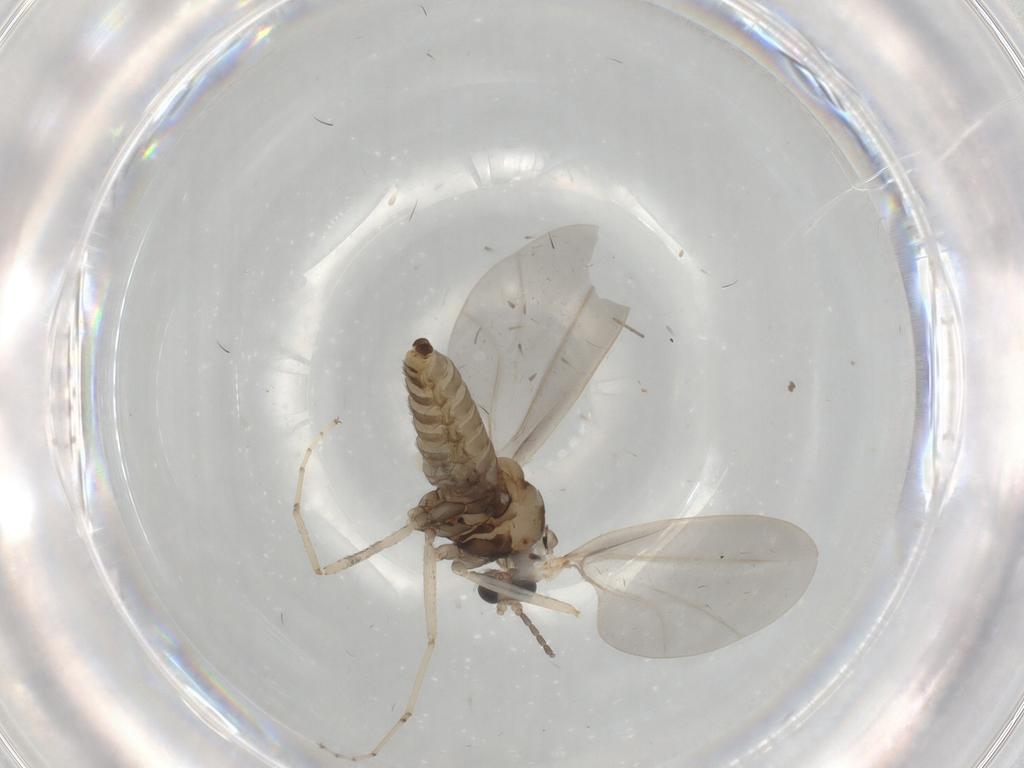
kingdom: Animalia
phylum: Arthropoda
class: Insecta
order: Diptera
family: Cecidomyiidae
